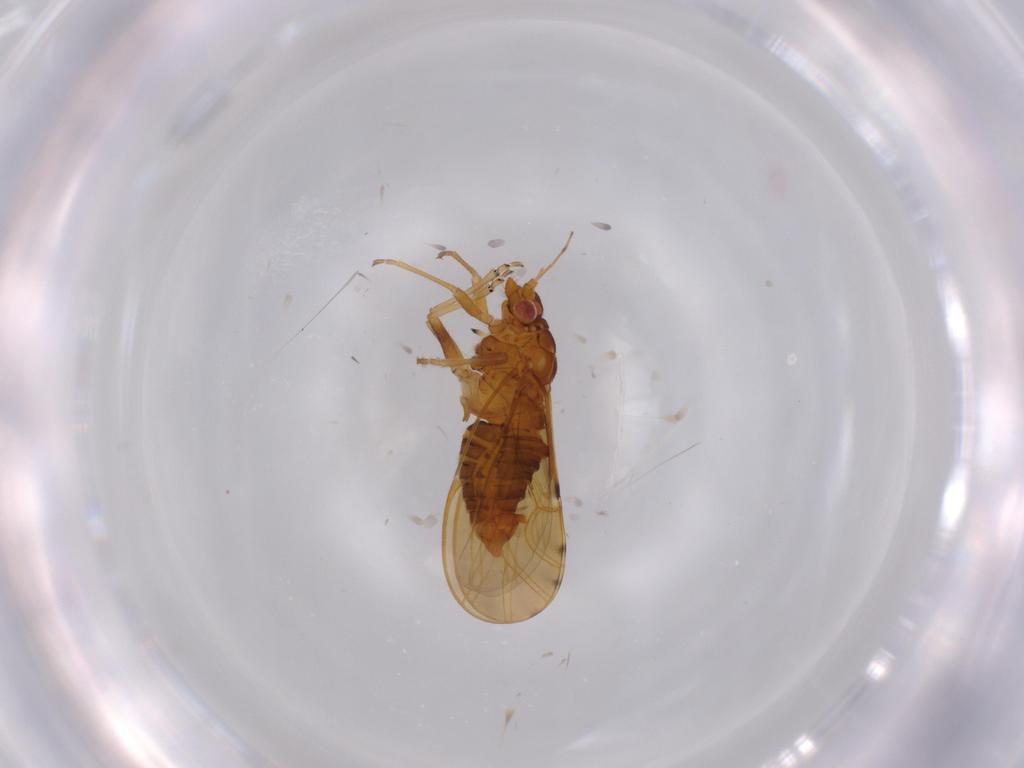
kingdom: Animalia
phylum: Arthropoda
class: Insecta
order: Hemiptera
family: Psylloidea_incertae_sedis
